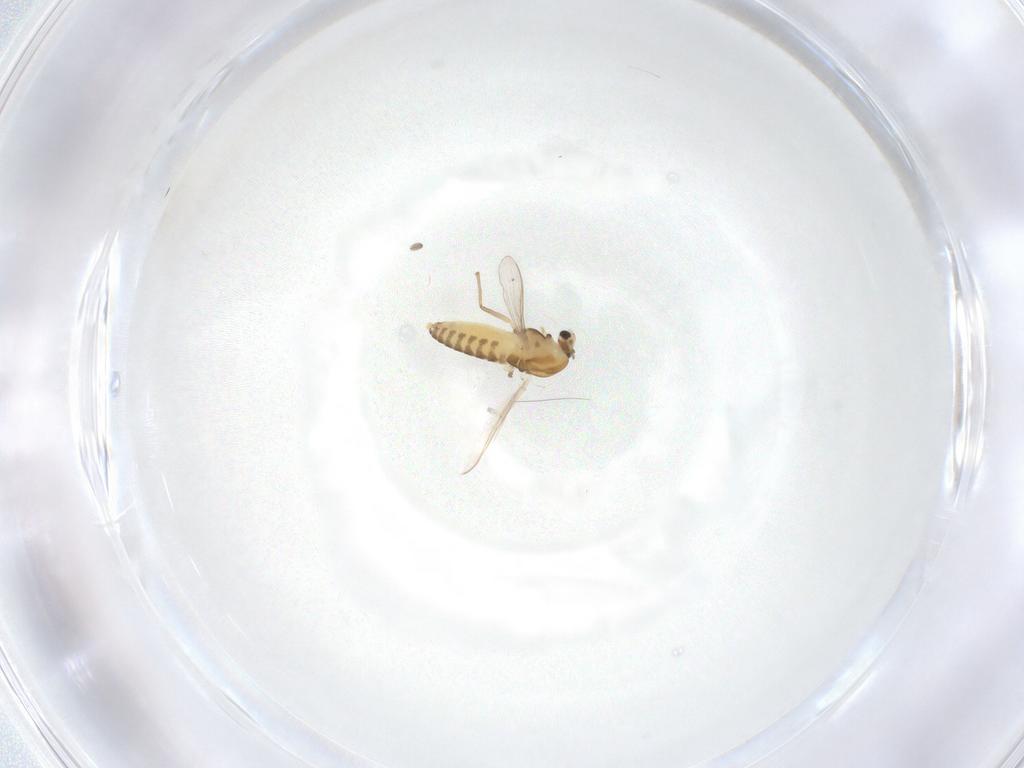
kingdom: Animalia
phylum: Arthropoda
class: Insecta
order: Diptera
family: Chironomidae
